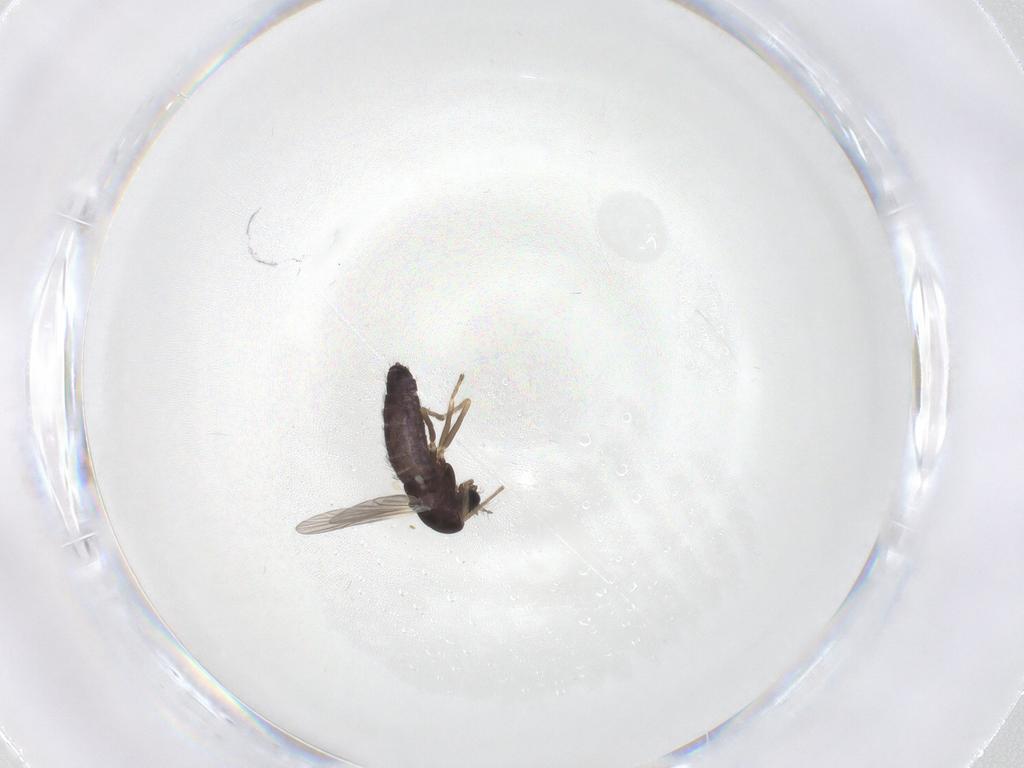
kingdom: Animalia
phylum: Arthropoda
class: Insecta
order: Diptera
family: Chironomidae
